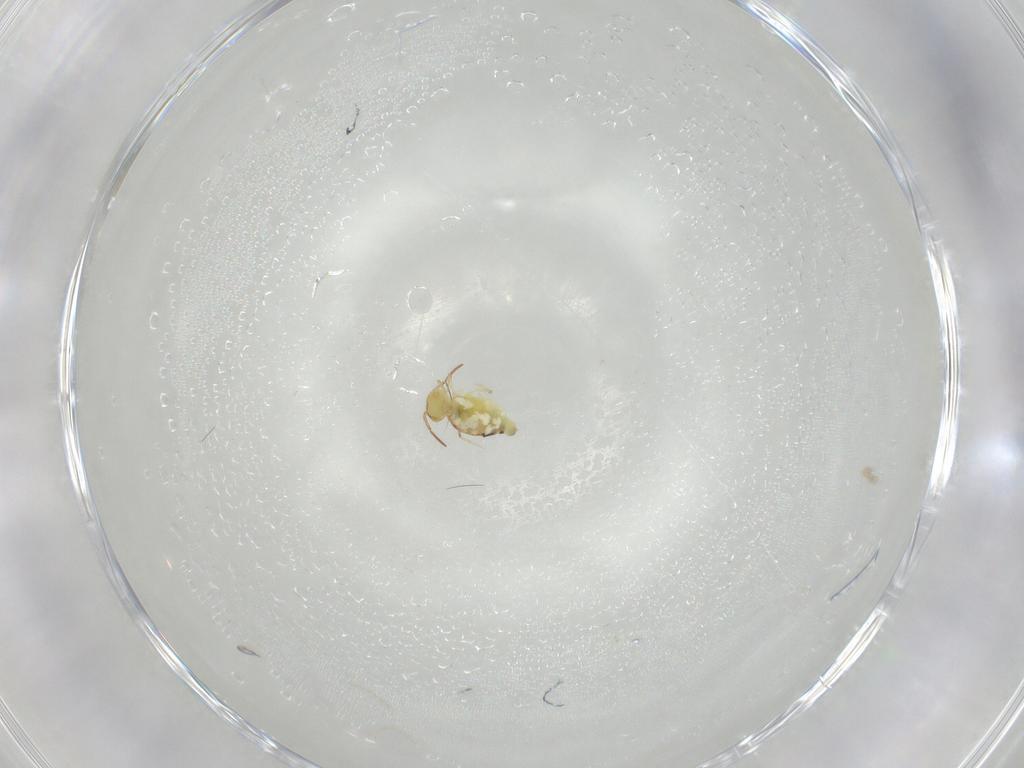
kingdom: Animalia
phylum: Arthropoda
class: Collembola
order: Symphypleona
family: Bourletiellidae
